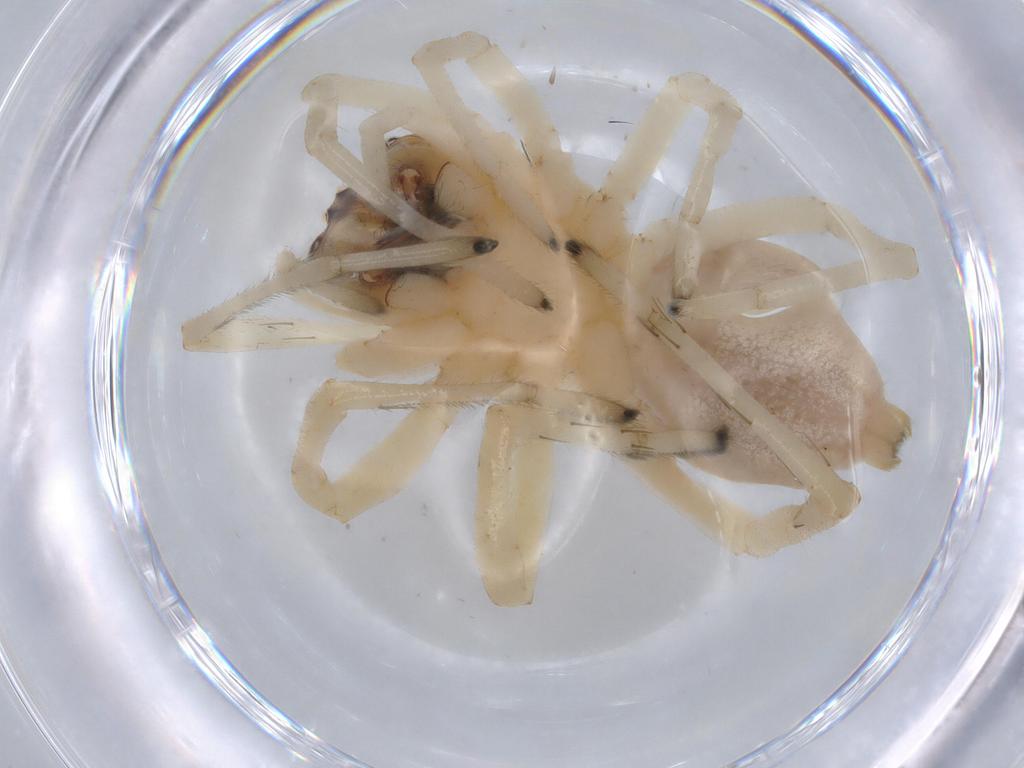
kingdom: Animalia
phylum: Arthropoda
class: Arachnida
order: Araneae
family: Cheiracanthiidae
